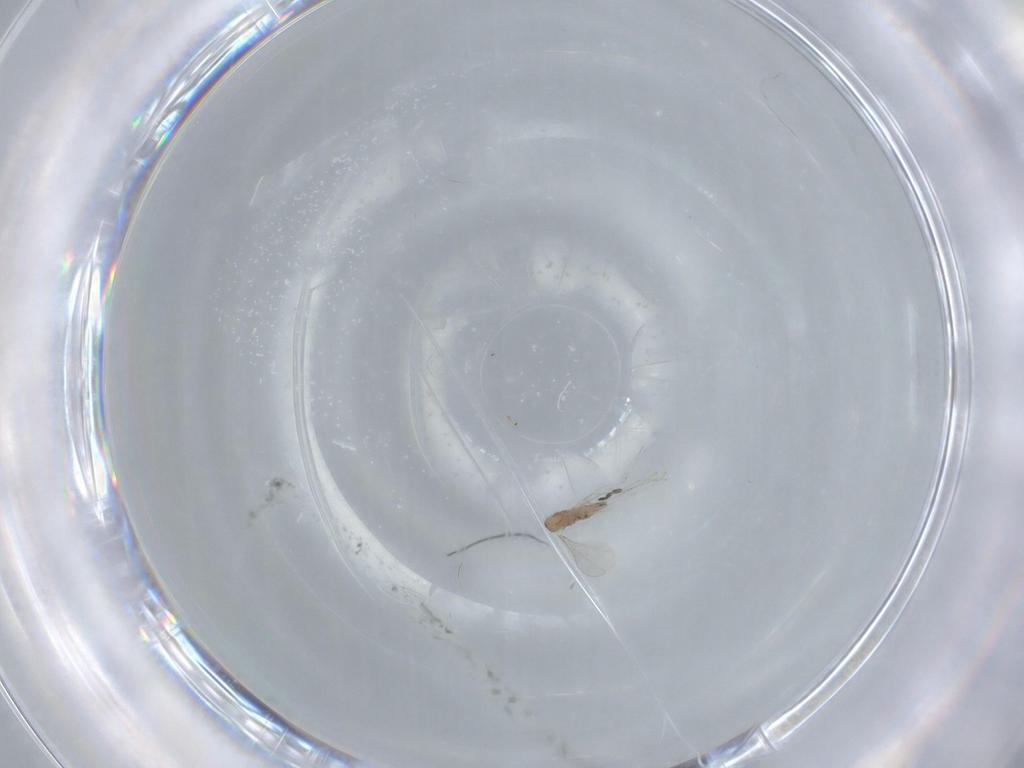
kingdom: Animalia
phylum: Arthropoda
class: Insecta
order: Diptera
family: Cecidomyiidae
